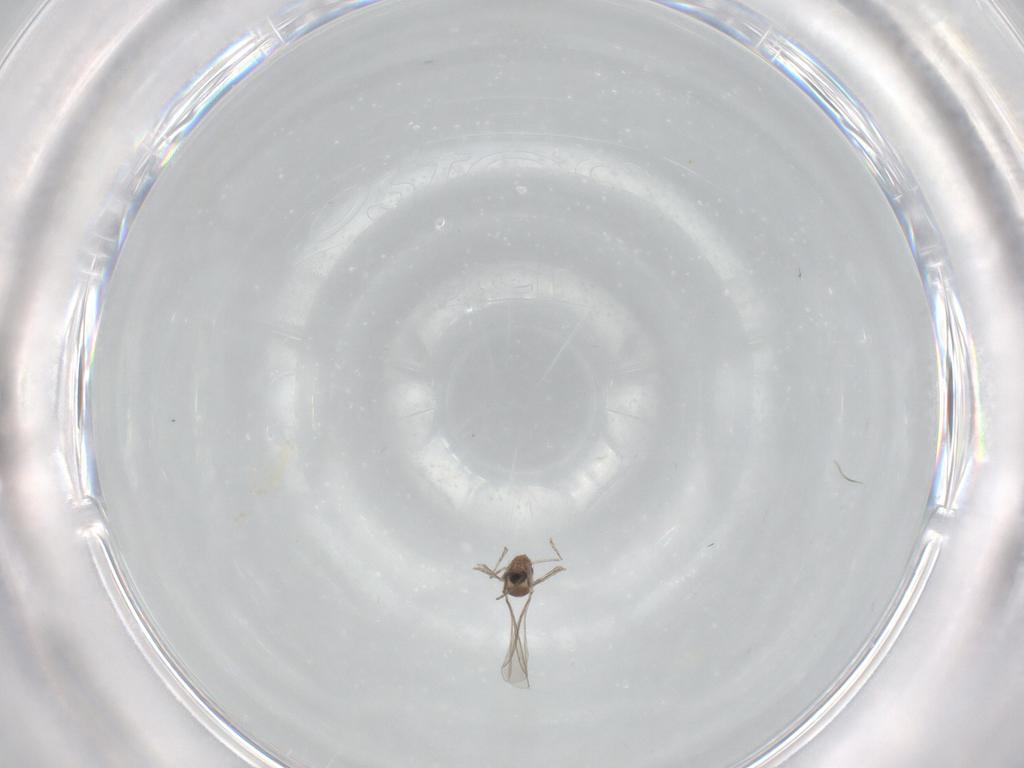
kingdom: Animalia
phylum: Arthropoda
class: Insecta
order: Diptera
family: Cecidomyiidae
